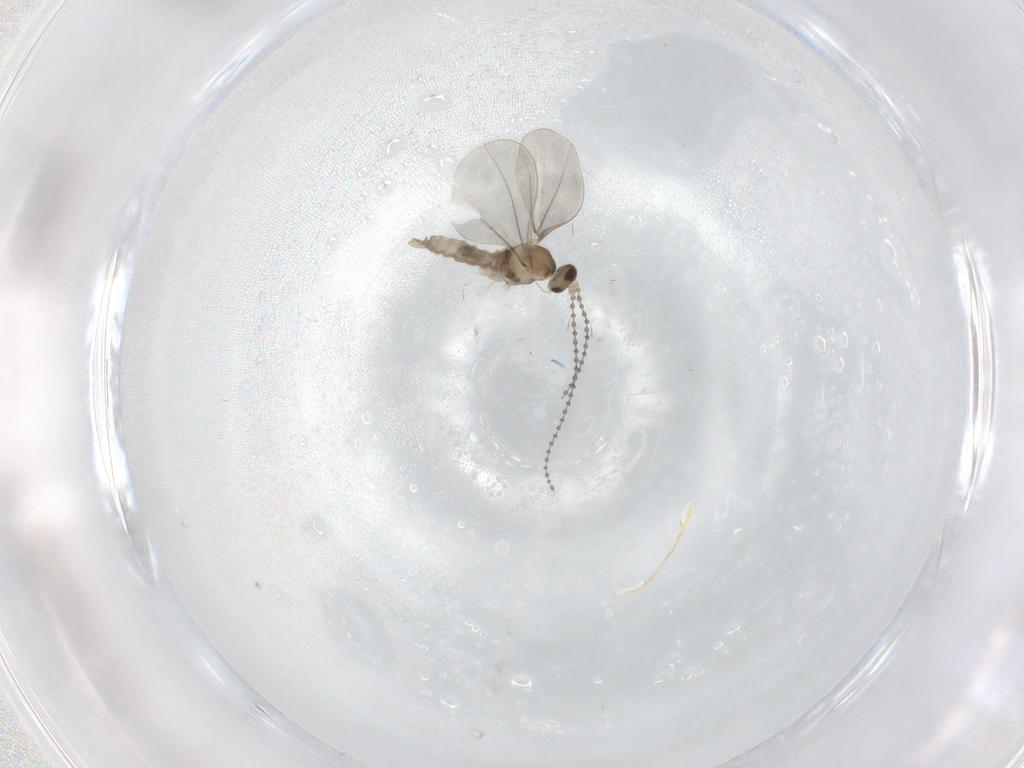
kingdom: Animalia
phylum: Arthropoda
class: Insecta
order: Diptera
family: Cecidomyiidae
